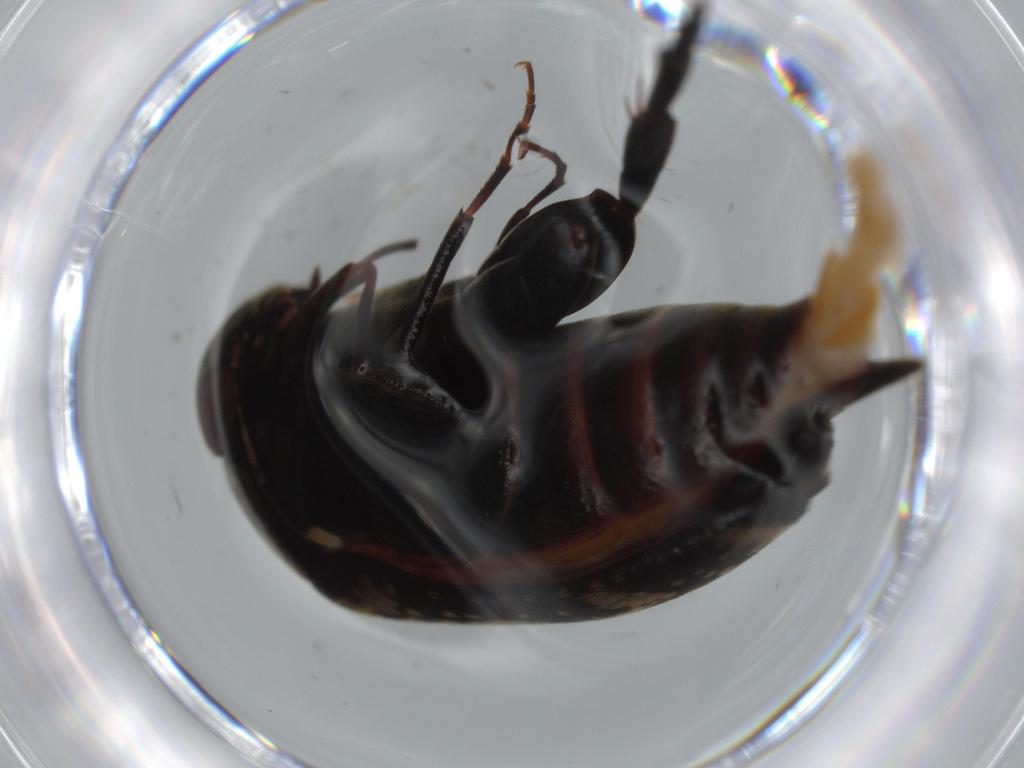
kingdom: Animalia
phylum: Arthropoda
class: Insecta
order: Coleoptera
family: Mordellidae
